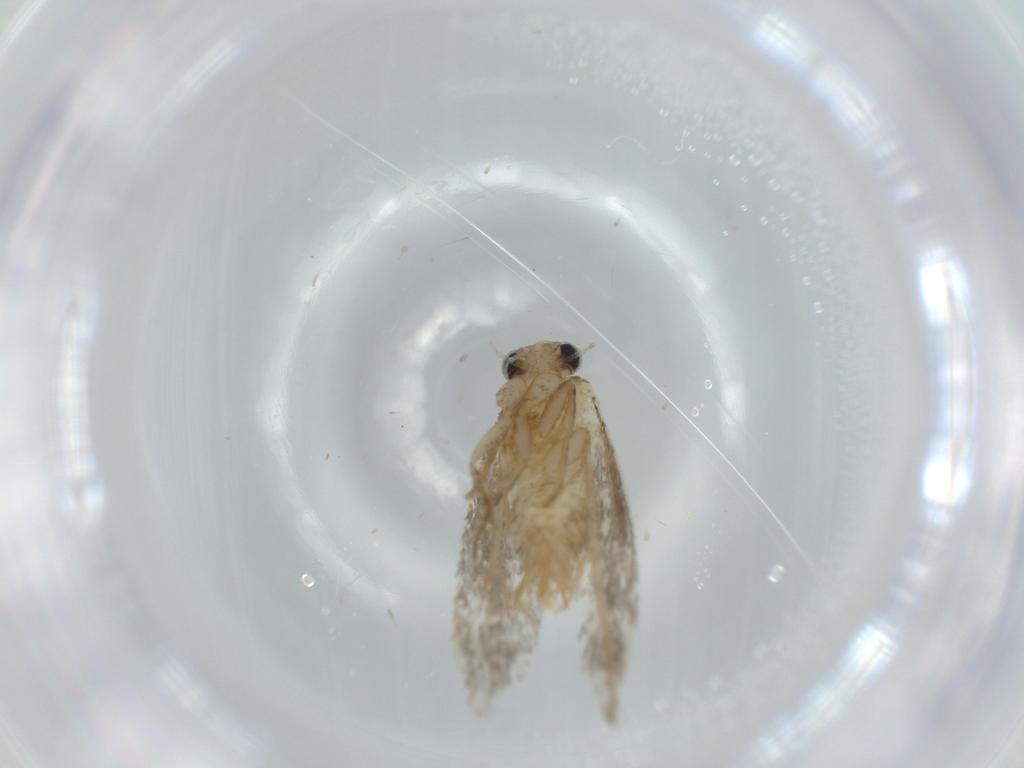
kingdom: Animalia
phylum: Arthropoda
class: Insecta
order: Lepidoptera
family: Tineidae
